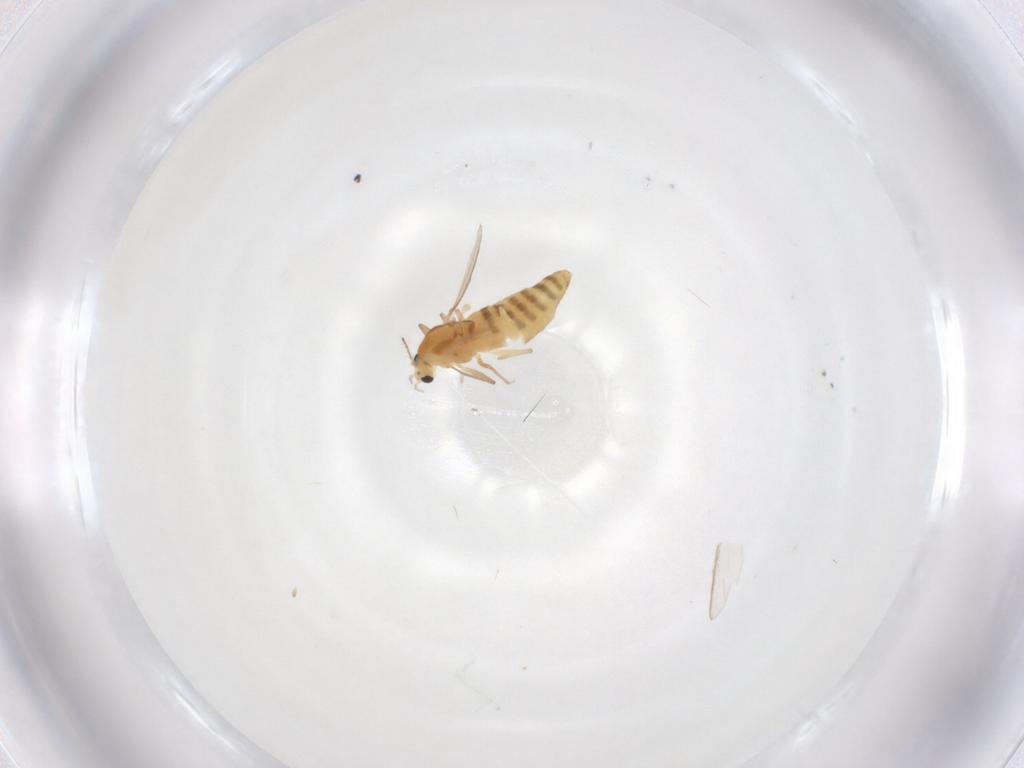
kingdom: Animalia
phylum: Arthropoda
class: Insecta
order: Diptera
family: Chironomidae
